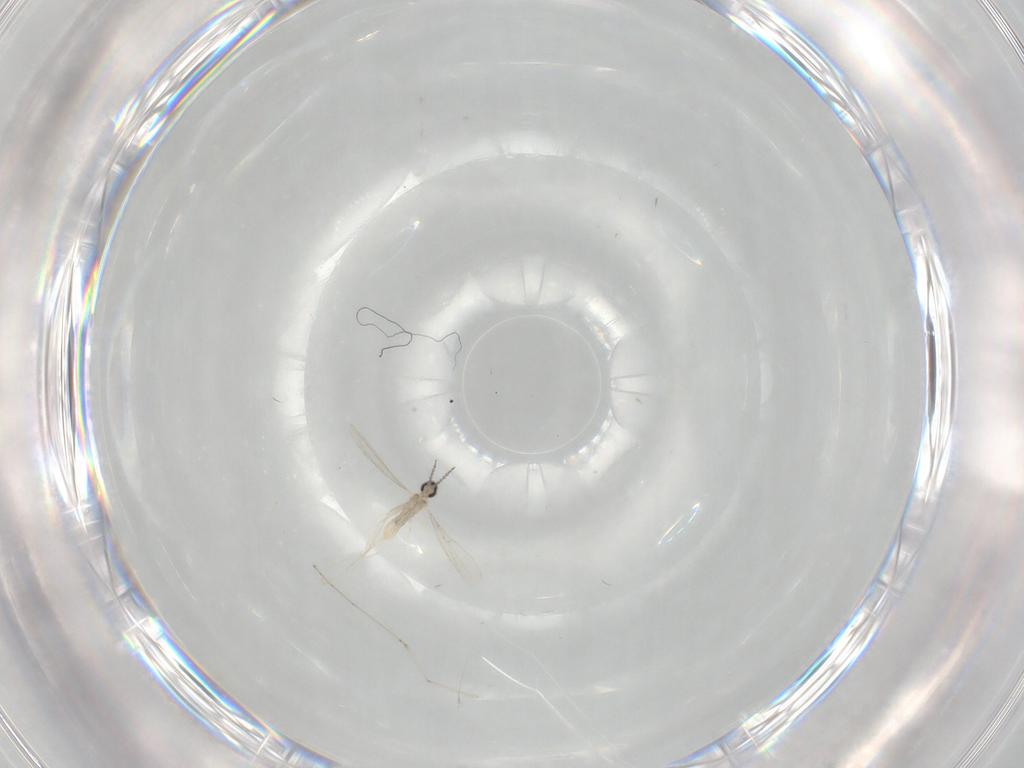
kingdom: Animalia
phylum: Arthropoda
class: Insecta
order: Diptera
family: Cecidomyiidae
